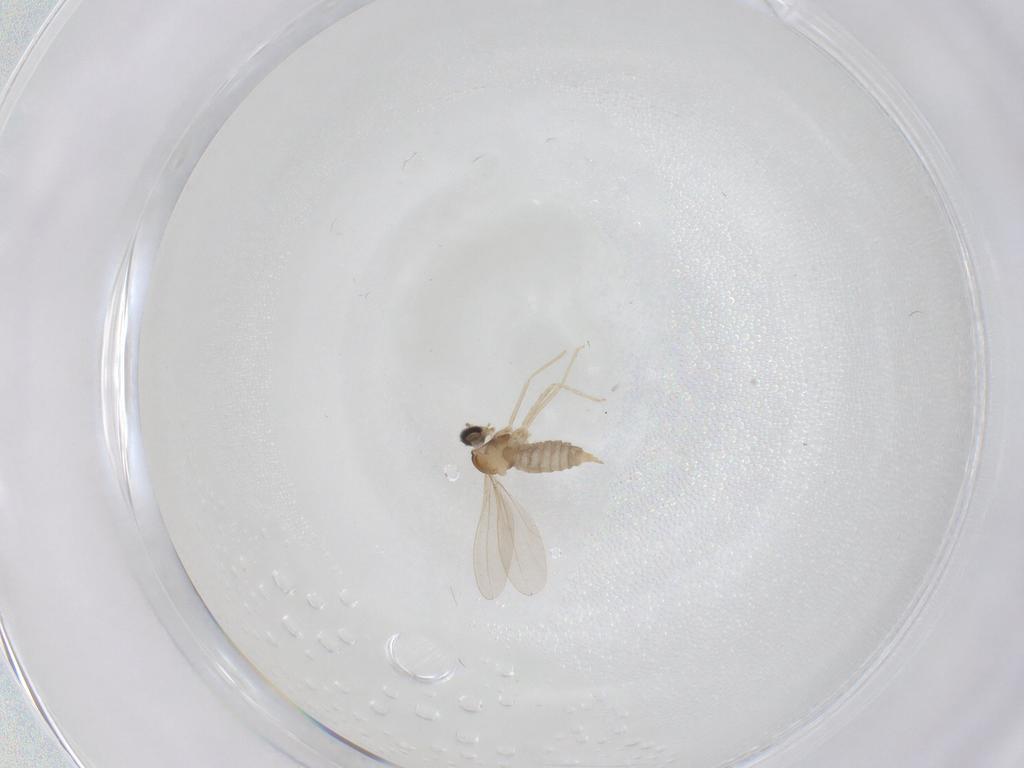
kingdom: Animalia
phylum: Arthropoda
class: Insecta
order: Diptera
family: Cecidomyiidae
